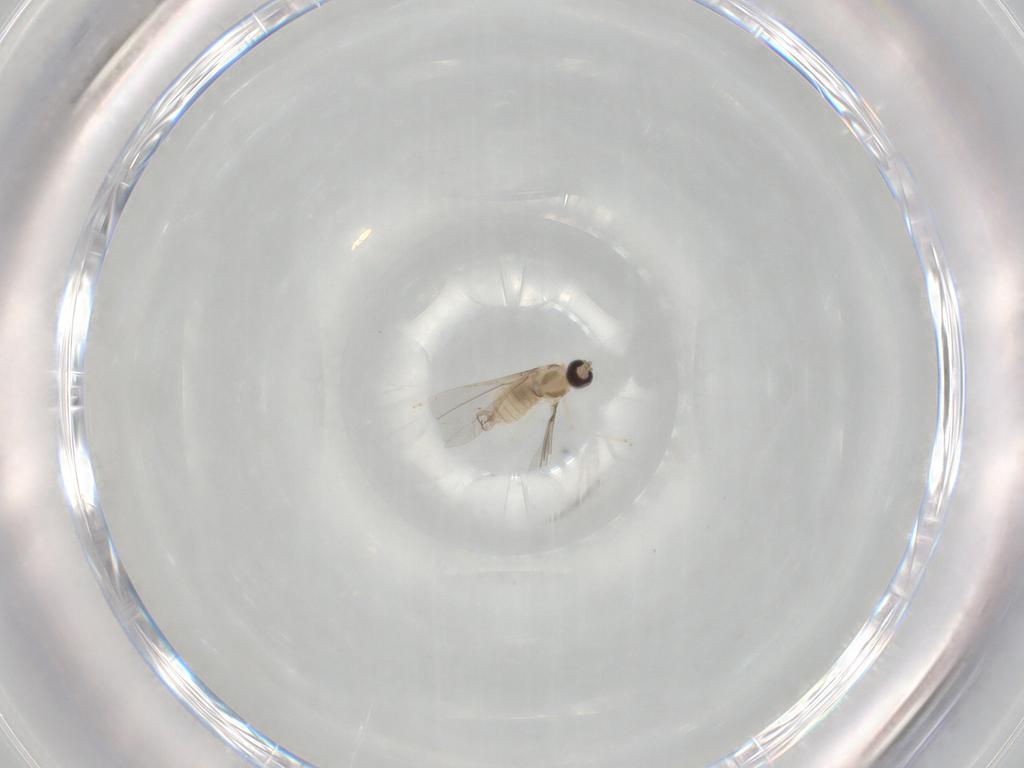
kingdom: Animalia
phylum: Arthropoda
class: Insecta
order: Diptera
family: Cecidomyiidae
